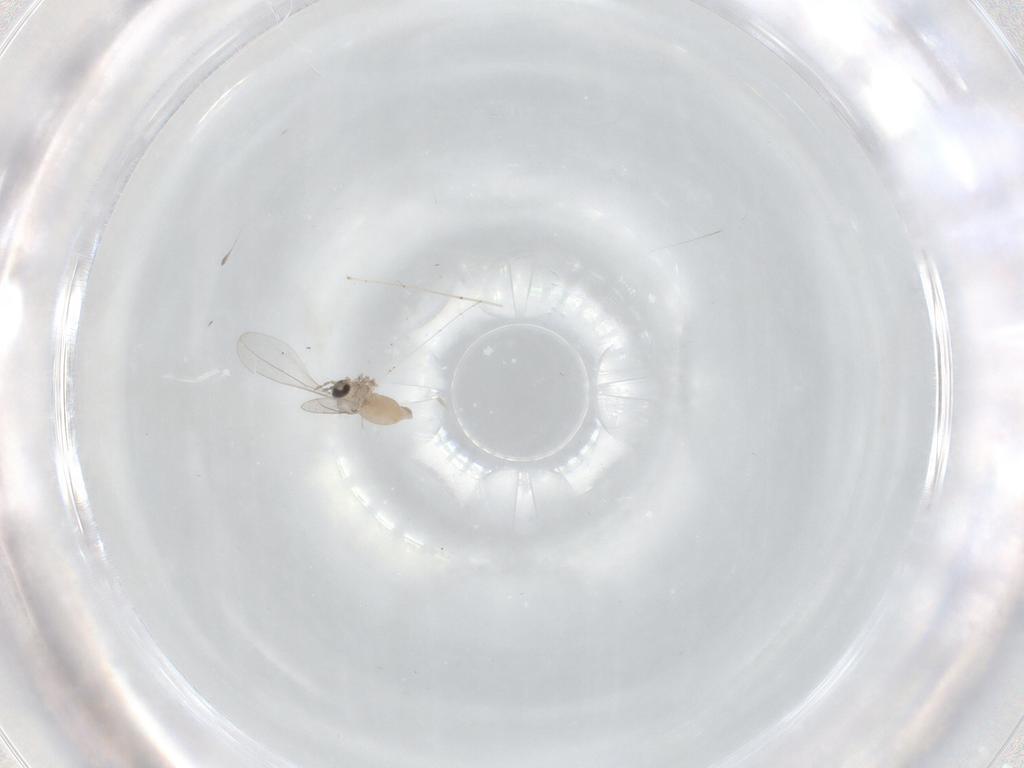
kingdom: Animalia
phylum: Arthropoda
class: Insecta
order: Diptera
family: Cecidomyiidae
